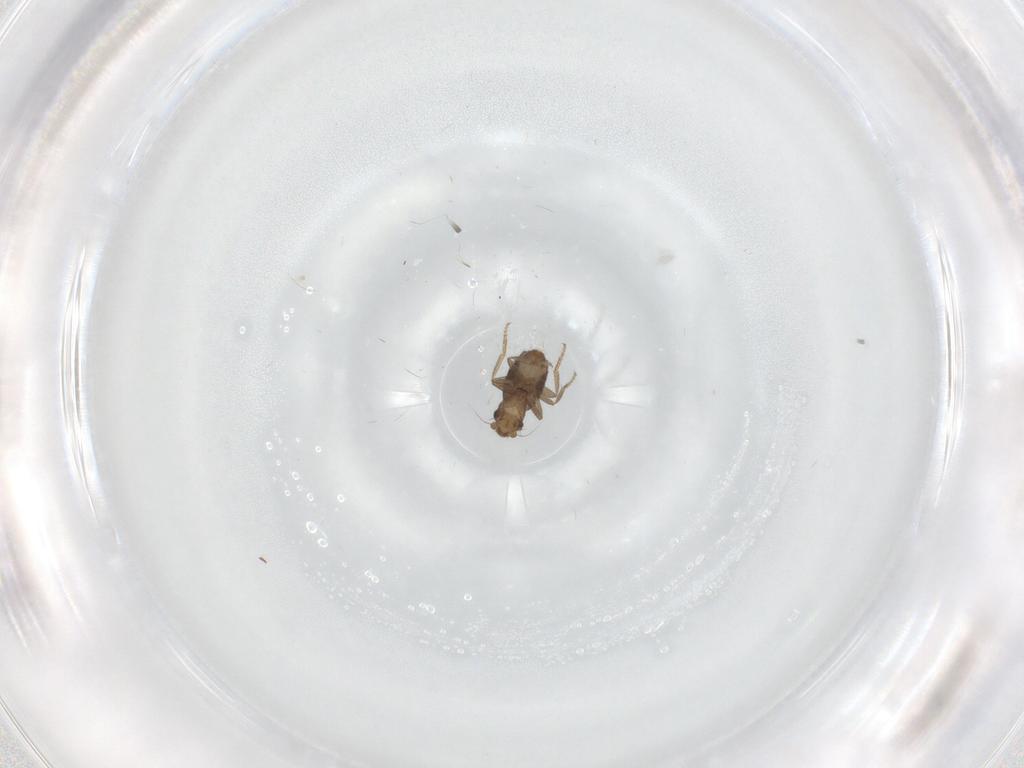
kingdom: Animalia
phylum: Arthropoda
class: Insecta
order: Diptera
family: Phoridae
